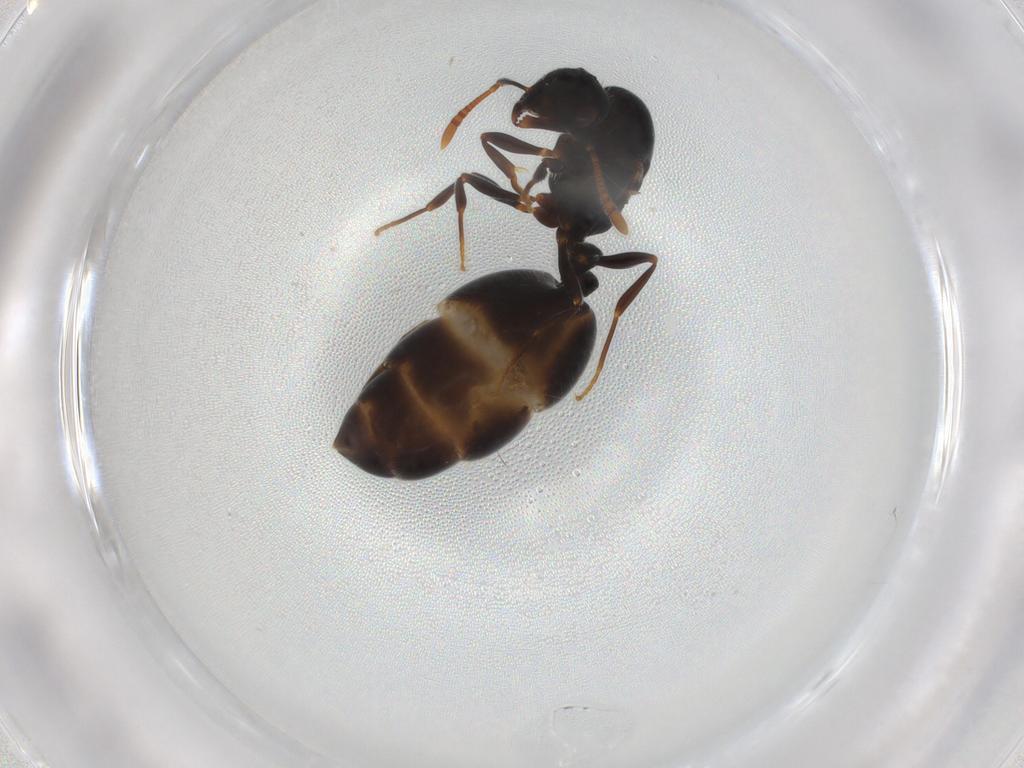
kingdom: Animalia
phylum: Arthropoda
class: Insecta
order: Hymenoptera
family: Formicidae
